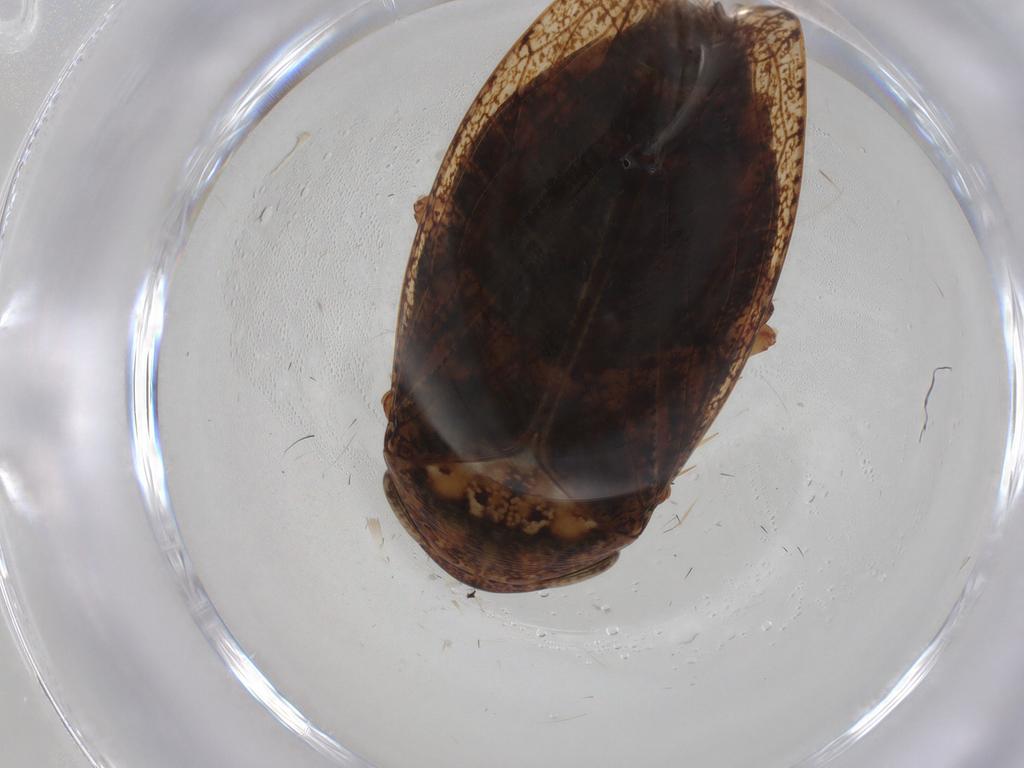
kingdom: Animalia
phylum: Arthropoda
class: Insecta
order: Hemiptera
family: Cicadellidae
